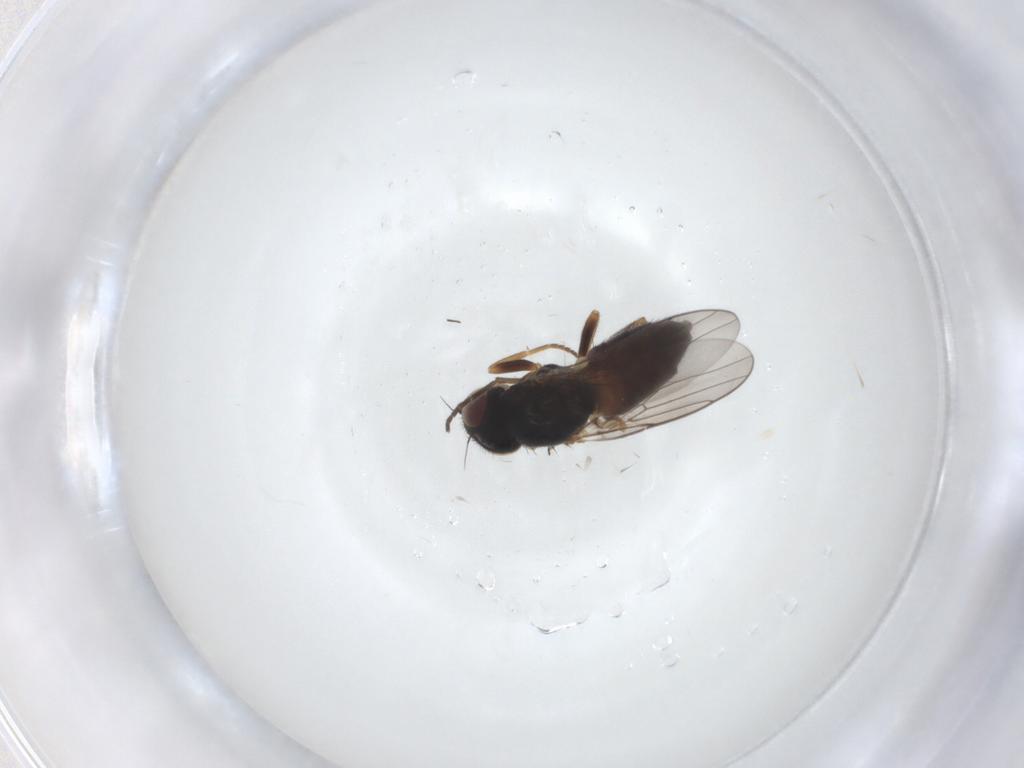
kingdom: Animalia
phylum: Arthropoda
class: Insecta
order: Diptera
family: Chloropidae
